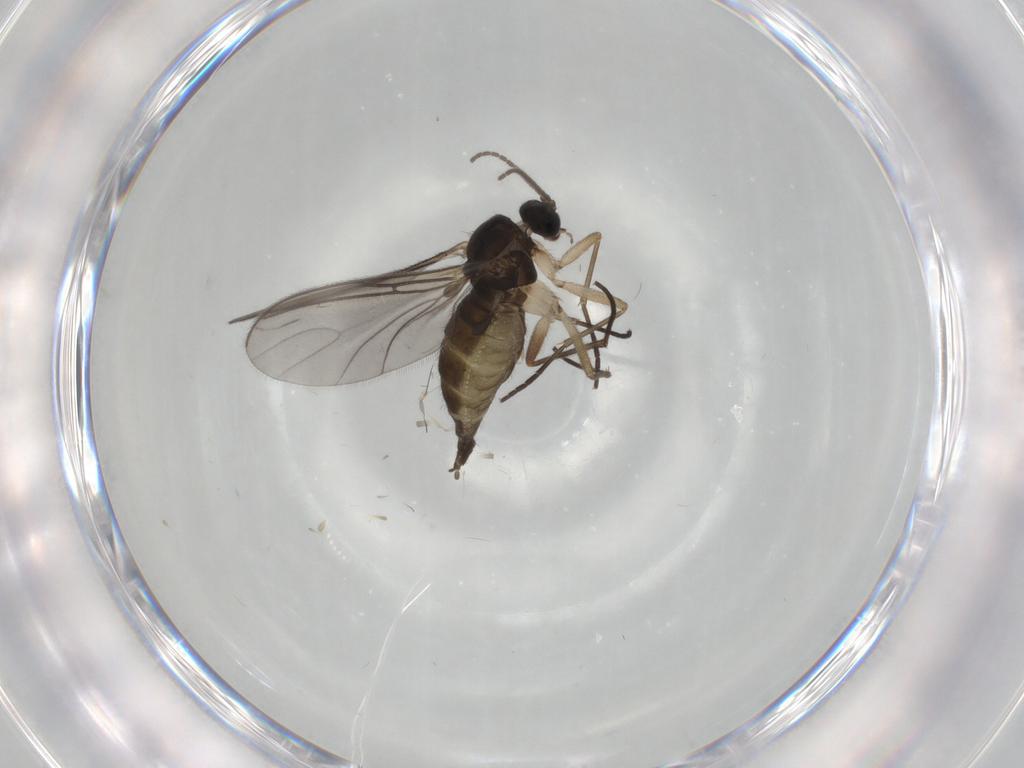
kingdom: Animalia
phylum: Arthropoda
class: Insecta
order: Diptera
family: Sciaridae
